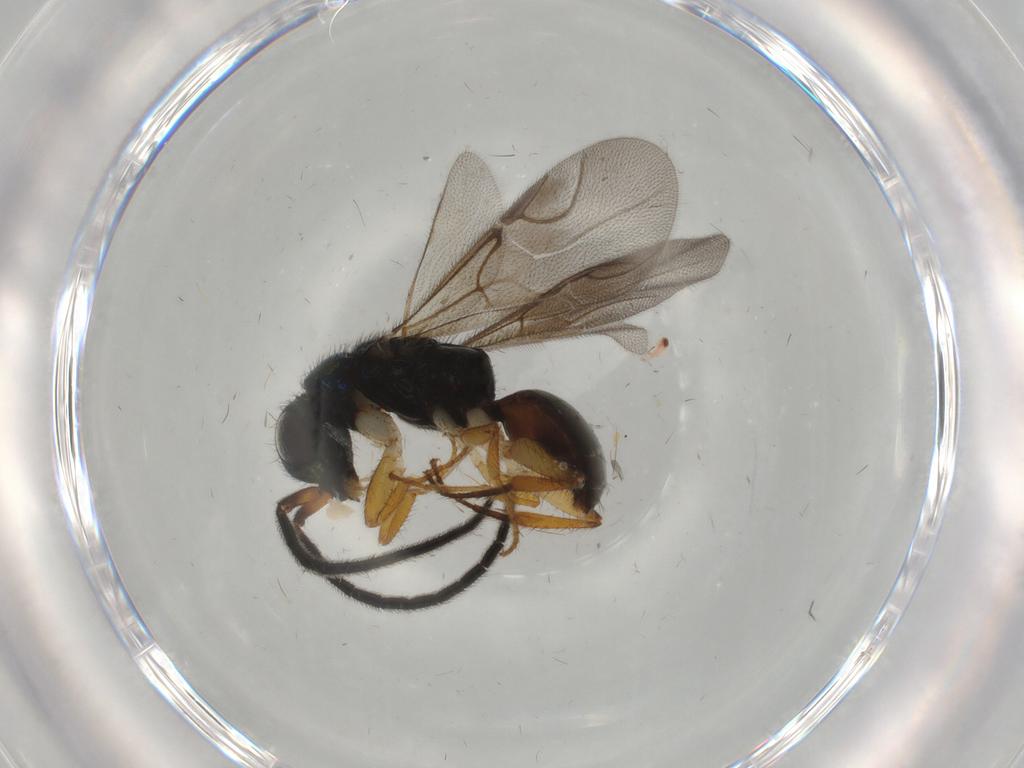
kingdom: Animalia
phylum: Arthropoda
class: Insecta
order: Hymenoptera
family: Chrysididae
